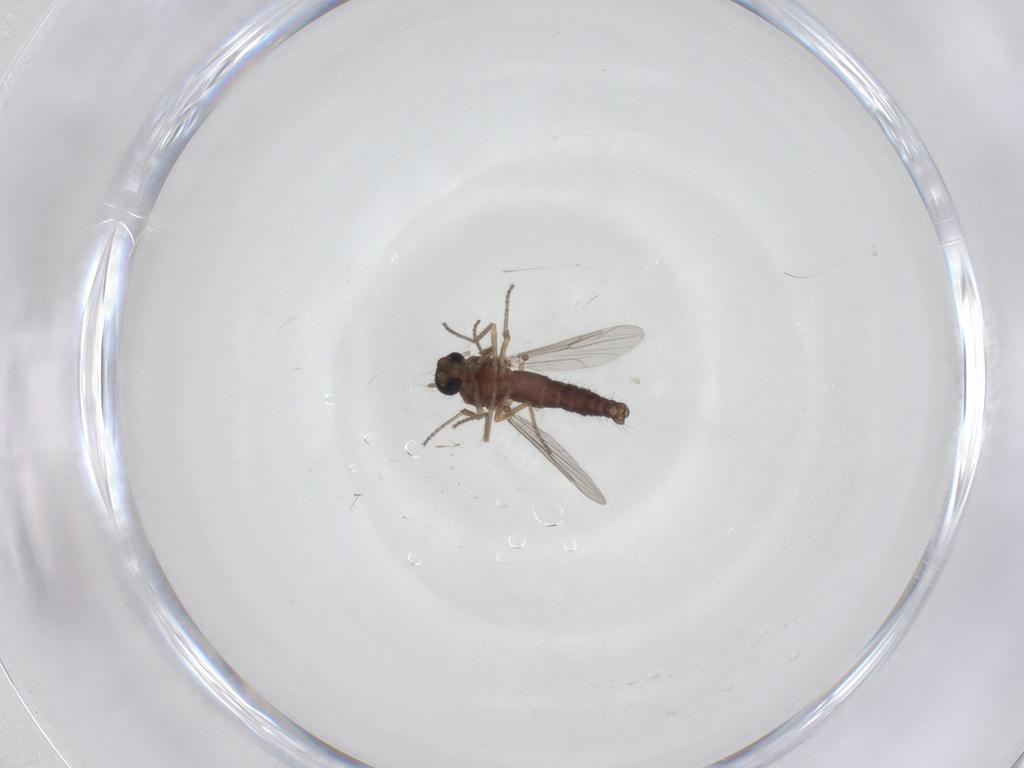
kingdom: Animalia
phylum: Arthropoda
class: Insecta
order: Diptera
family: Ceratopogonidae
